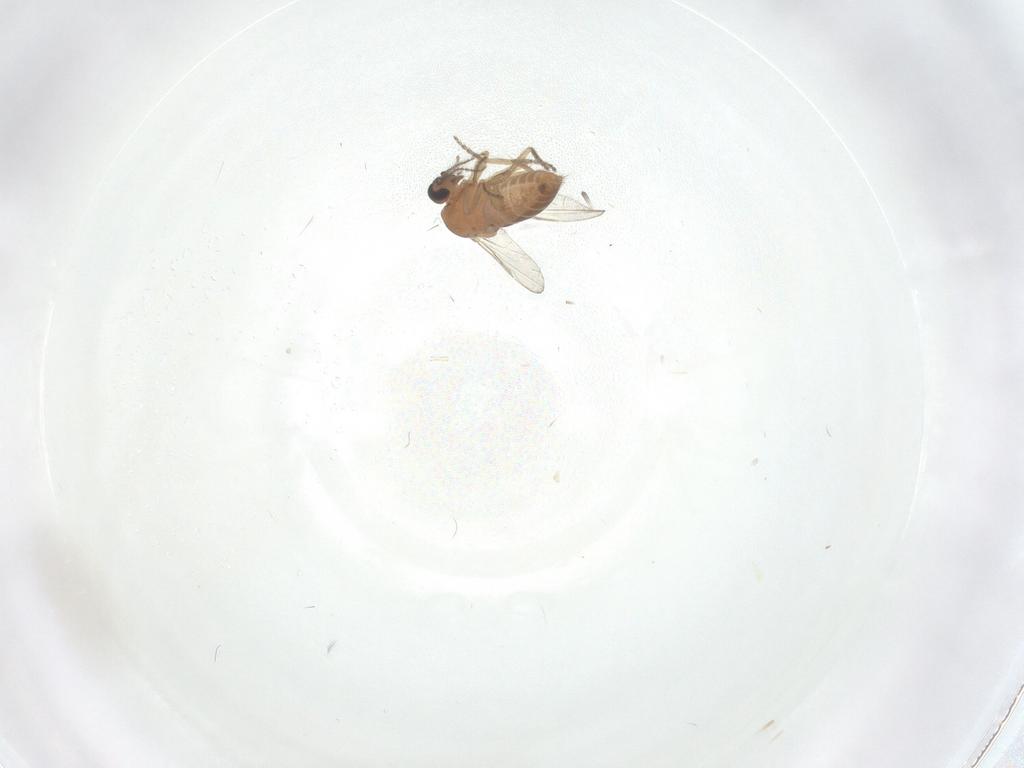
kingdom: Animalia
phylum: Arthropoda
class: Insecta
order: Diptera
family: Ceratopogonidae
